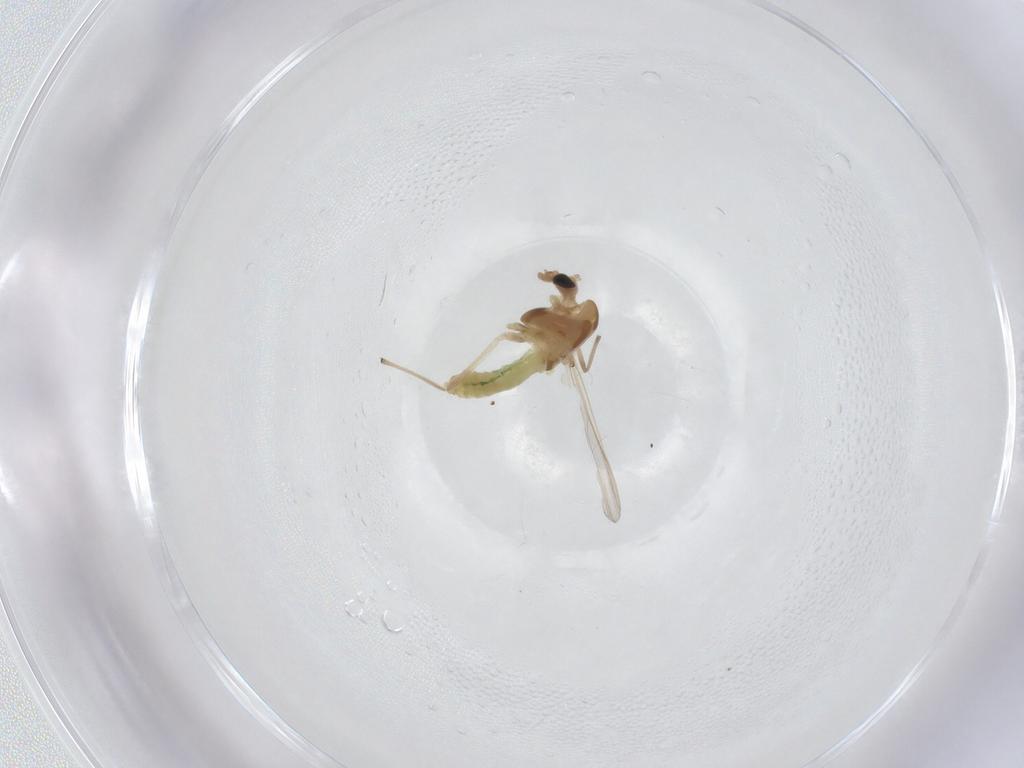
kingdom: Animalia
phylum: Arthropoda
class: Insecta
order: Diptera
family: Chironomidae
